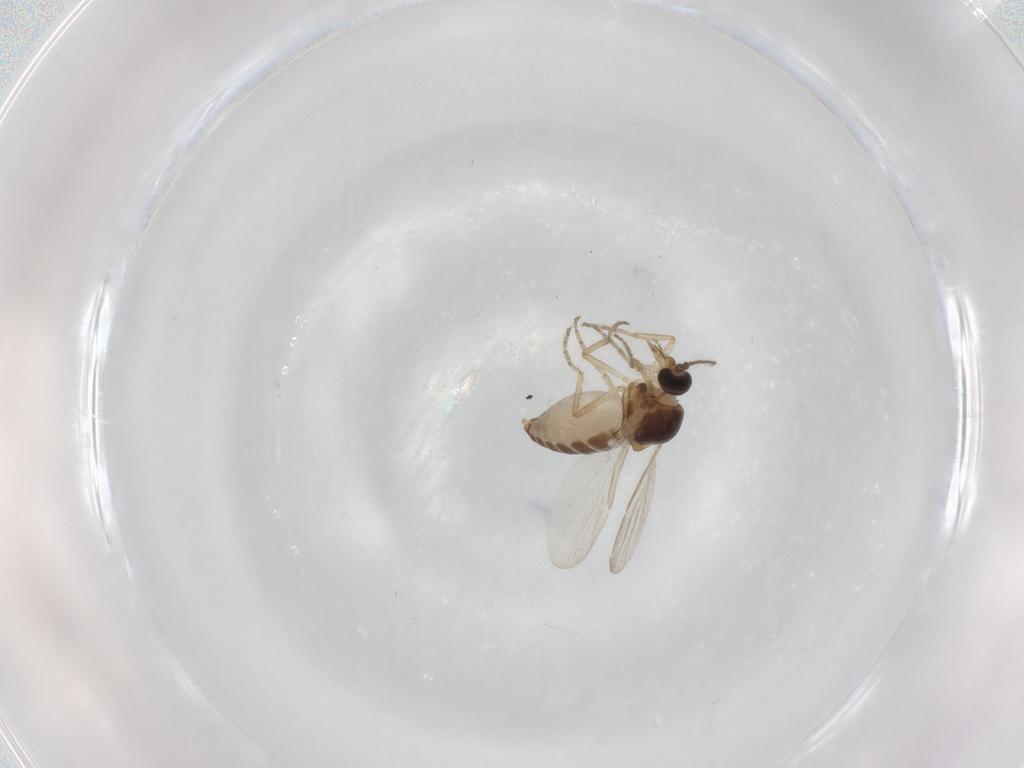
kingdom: Animalia
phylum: Arthropoda
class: Insecta
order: Diptera
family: Ceratopogonidae
